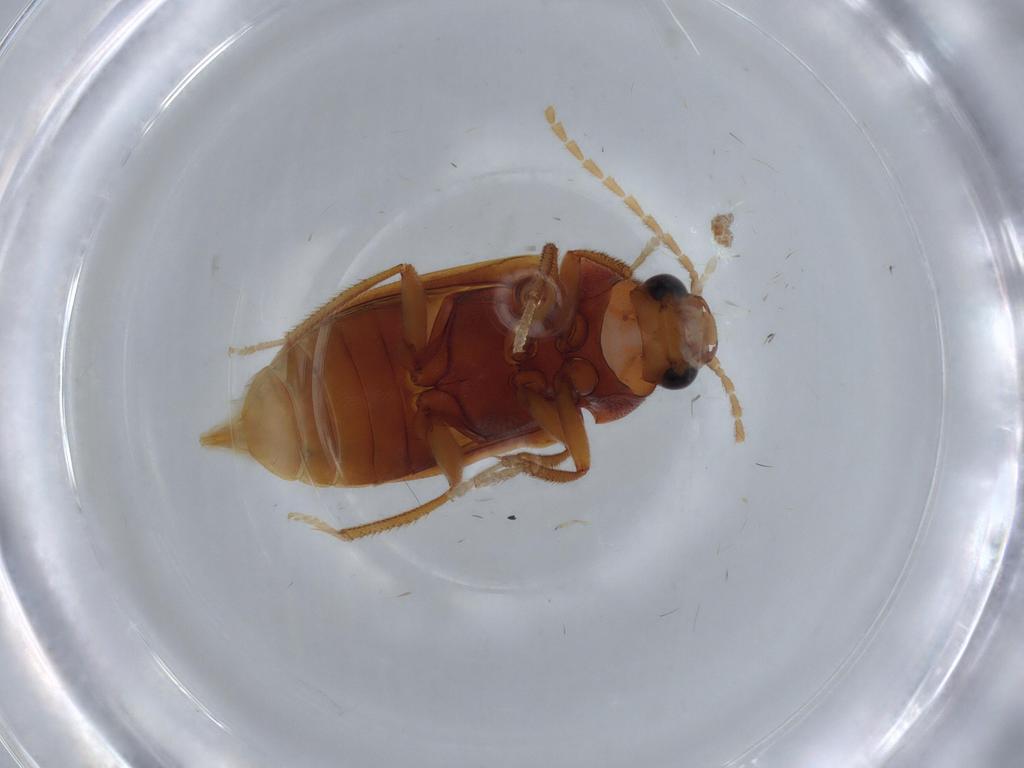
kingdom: Animalia
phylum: Arthropoda
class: Insecta
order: Coleoptera
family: Ptilodactylidae
